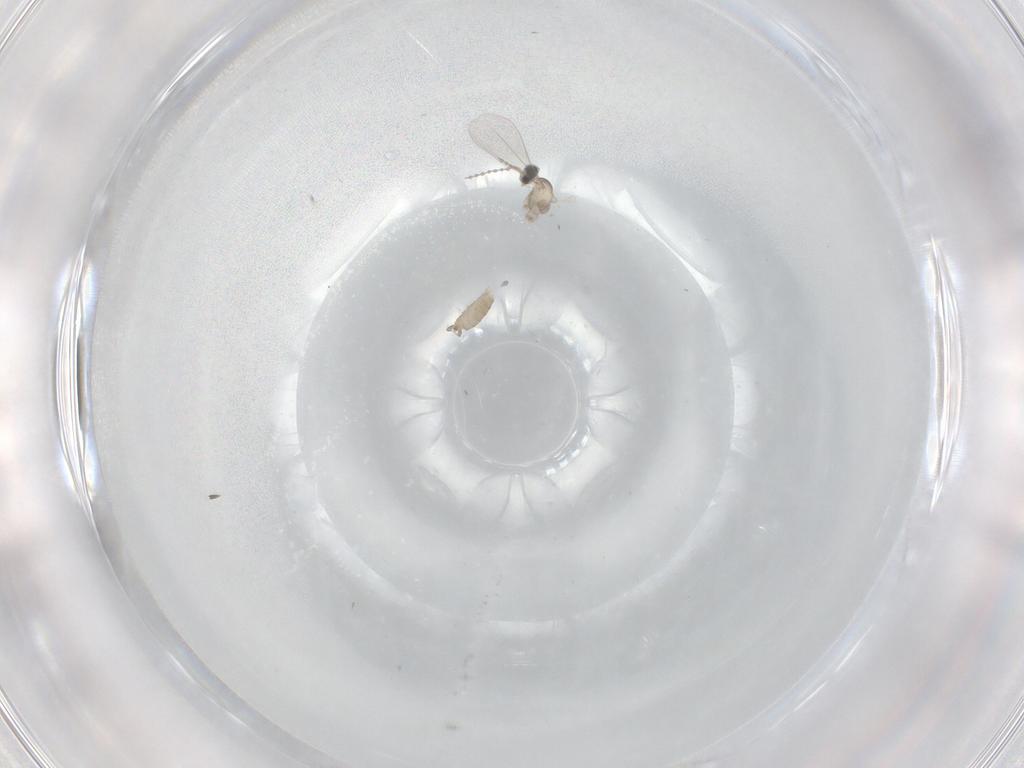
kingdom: Animalia
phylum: Arthropoda
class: Insecta
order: Diptera
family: Cecidomyiidae
